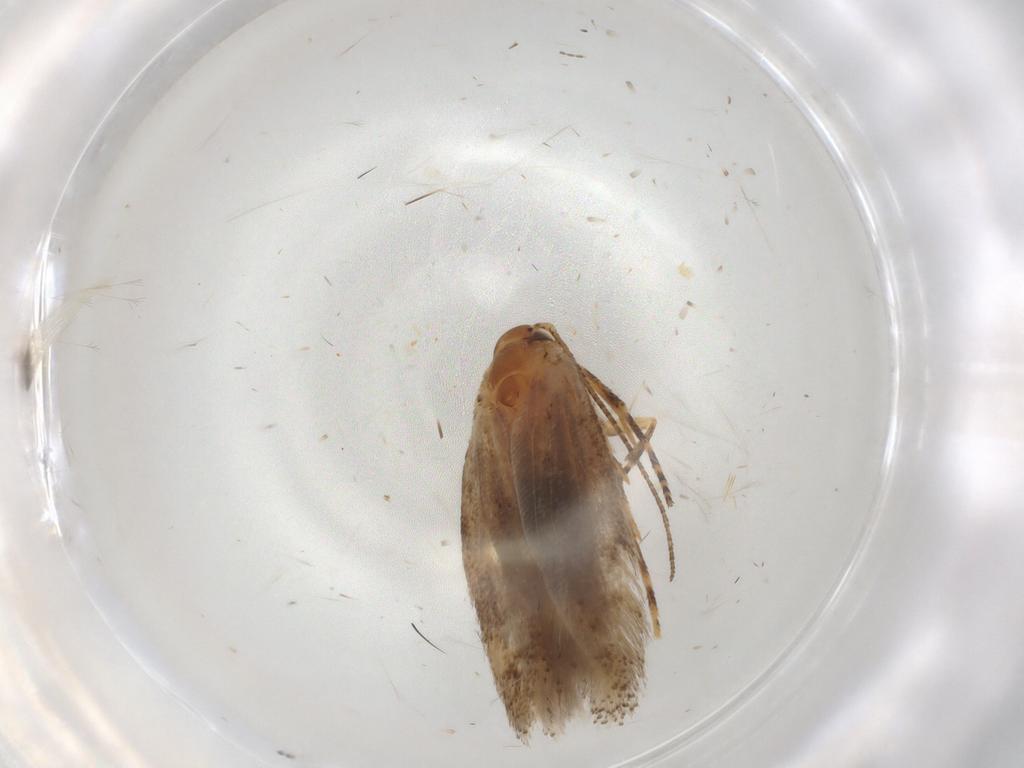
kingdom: Animalia
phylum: Arthropoda
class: Insecta
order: Lepidoptera
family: Gelechiidae
